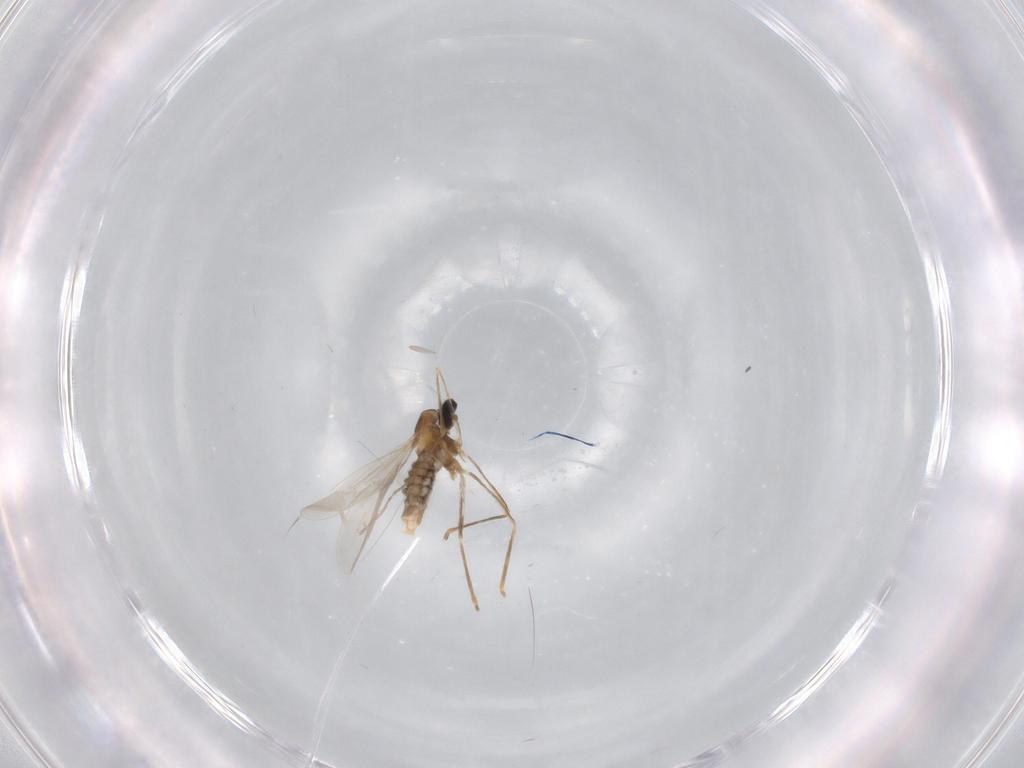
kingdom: Animalia
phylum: Arthropoda
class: Insecta
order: Diptera
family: Cecidomyiidae
